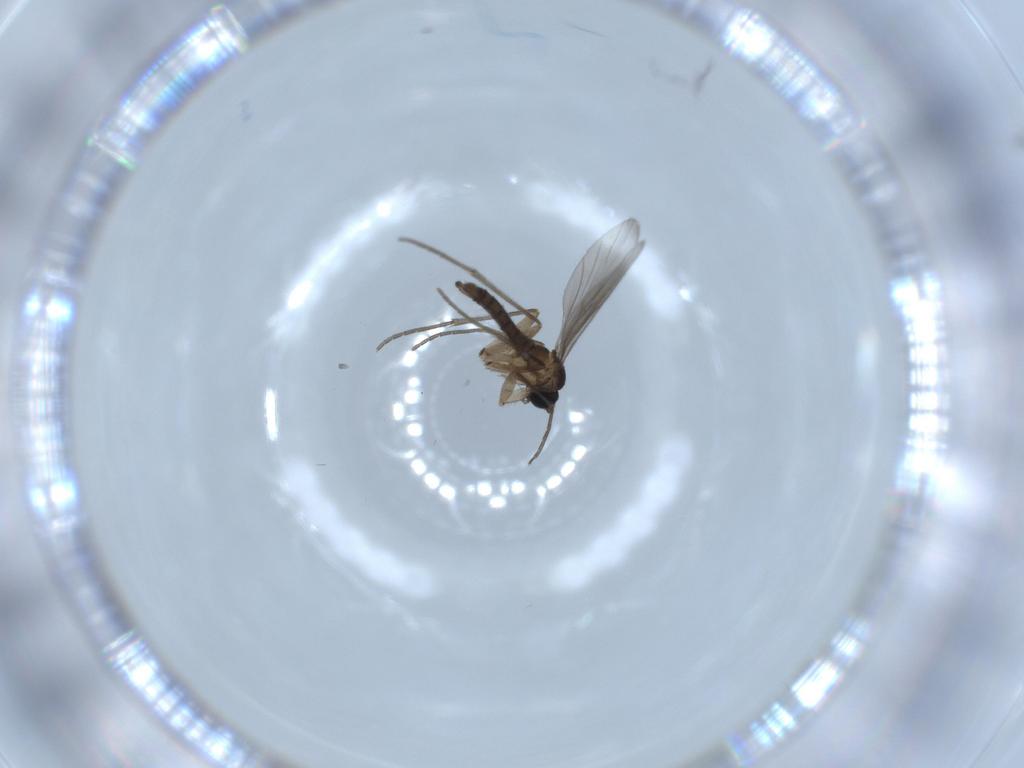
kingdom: Animalia
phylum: Arthropoda
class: Insecta
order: Diptera
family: Sciaridae
